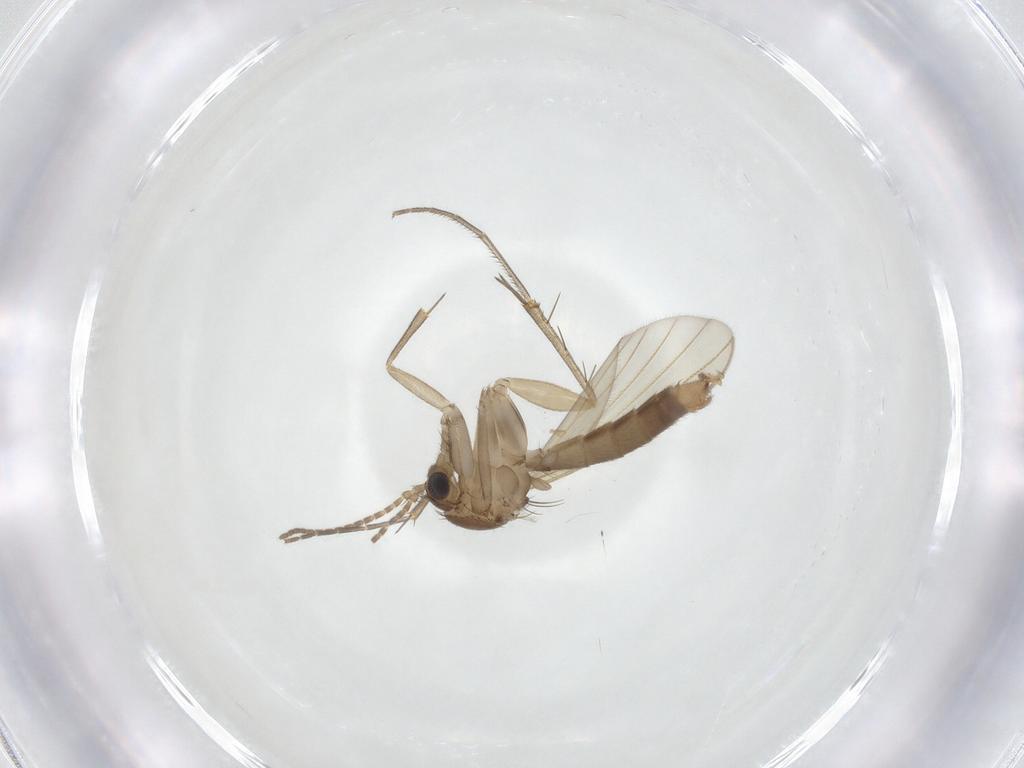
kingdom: Animalia
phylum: Arthropoda
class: Insecta
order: Diptera
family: Mycetophilidae
